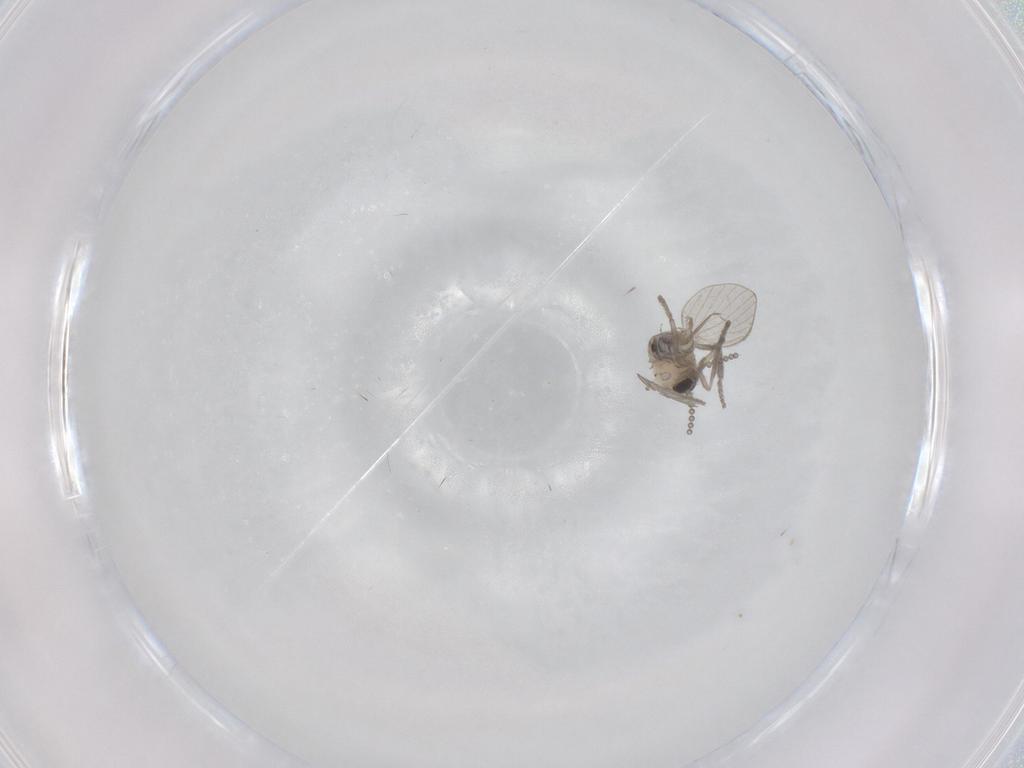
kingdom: Animalia
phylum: Arthropoda
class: Insecta
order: Diptera
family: Psychodidae
